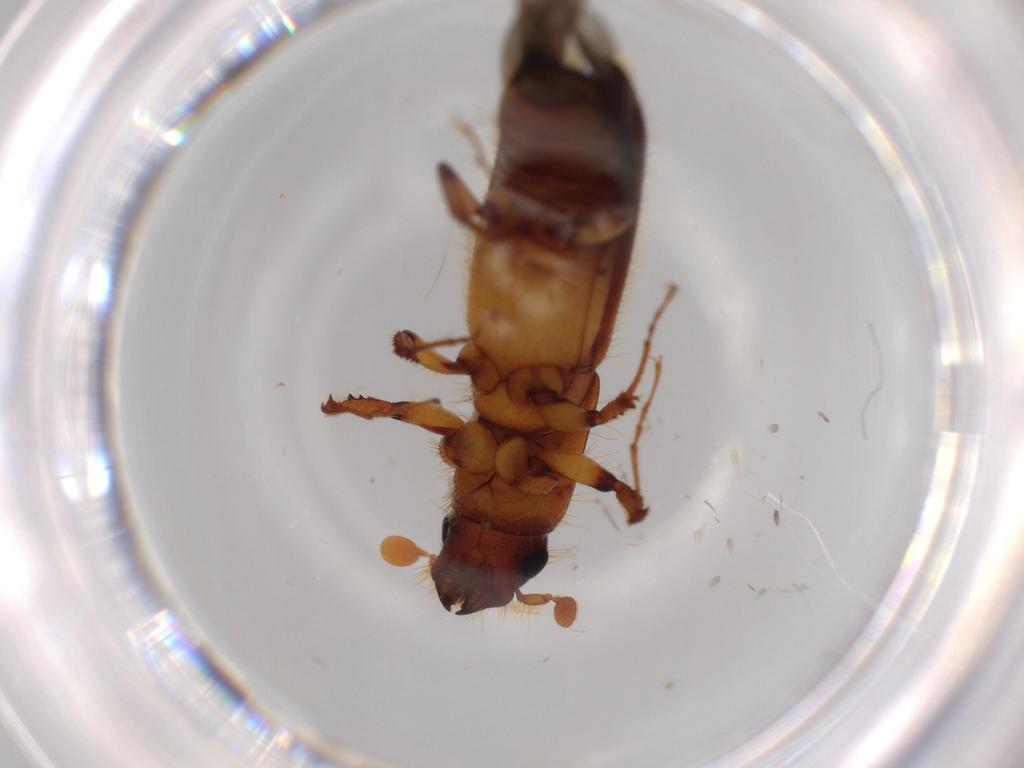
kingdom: Animalia
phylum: Arthropoda
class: Insecta
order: Coleoptera
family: Curculionidae
